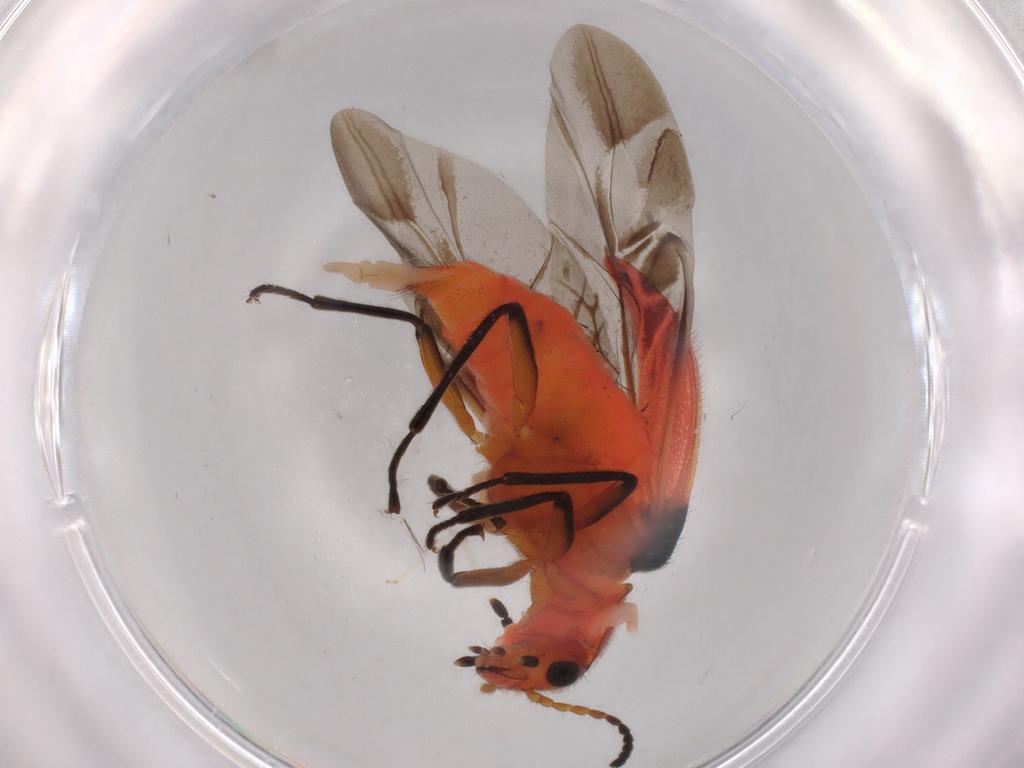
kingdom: Animalia
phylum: Arthropoda
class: Insecta
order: Coleoptera
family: Melyridae
